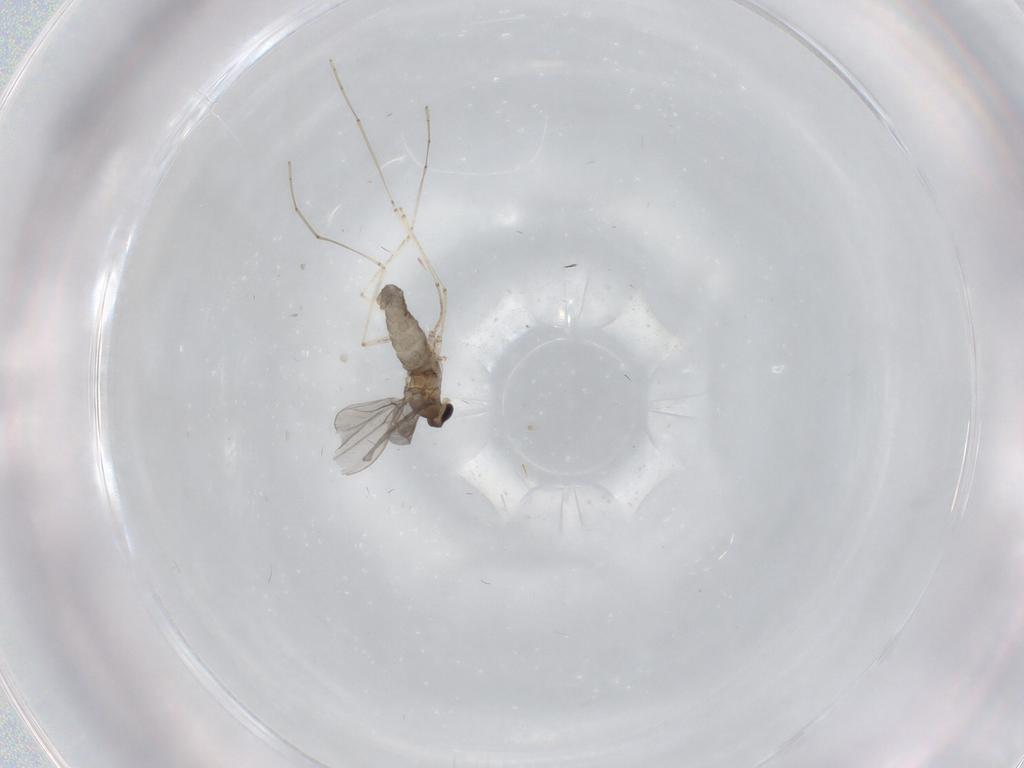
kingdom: Animalia
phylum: Arthropoda
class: Insecta
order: Diptera
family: Cecidomyiidae
